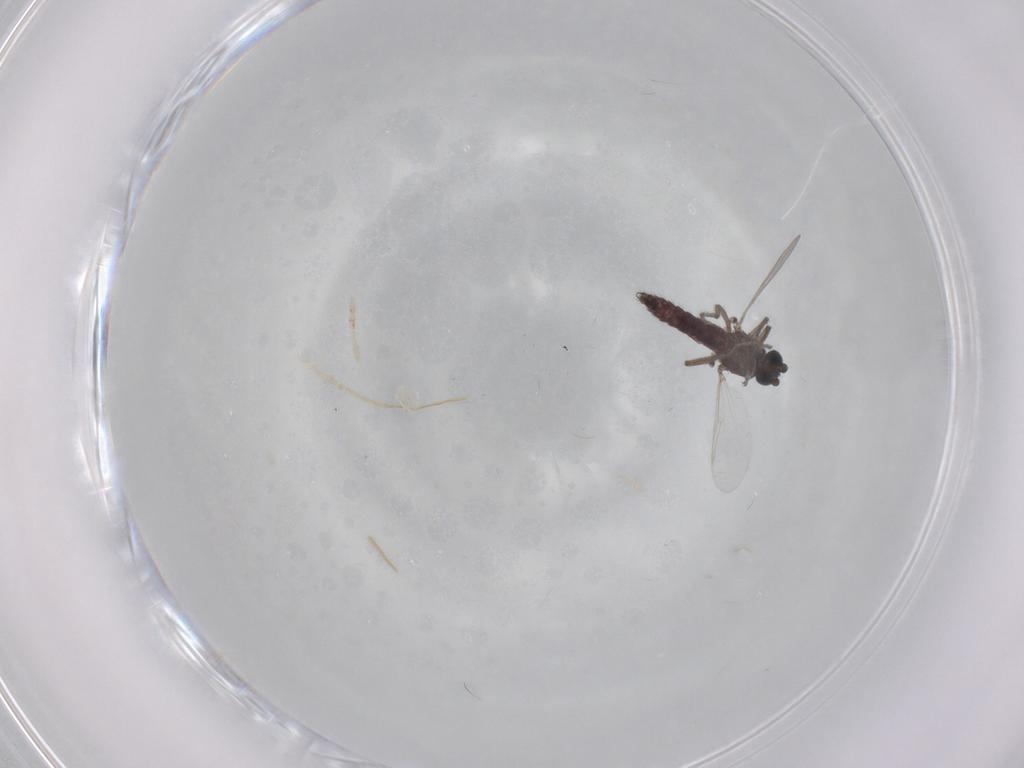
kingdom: Animalia
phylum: Arthropoda
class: Insecta
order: Diptera
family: Ceratopogonidae
